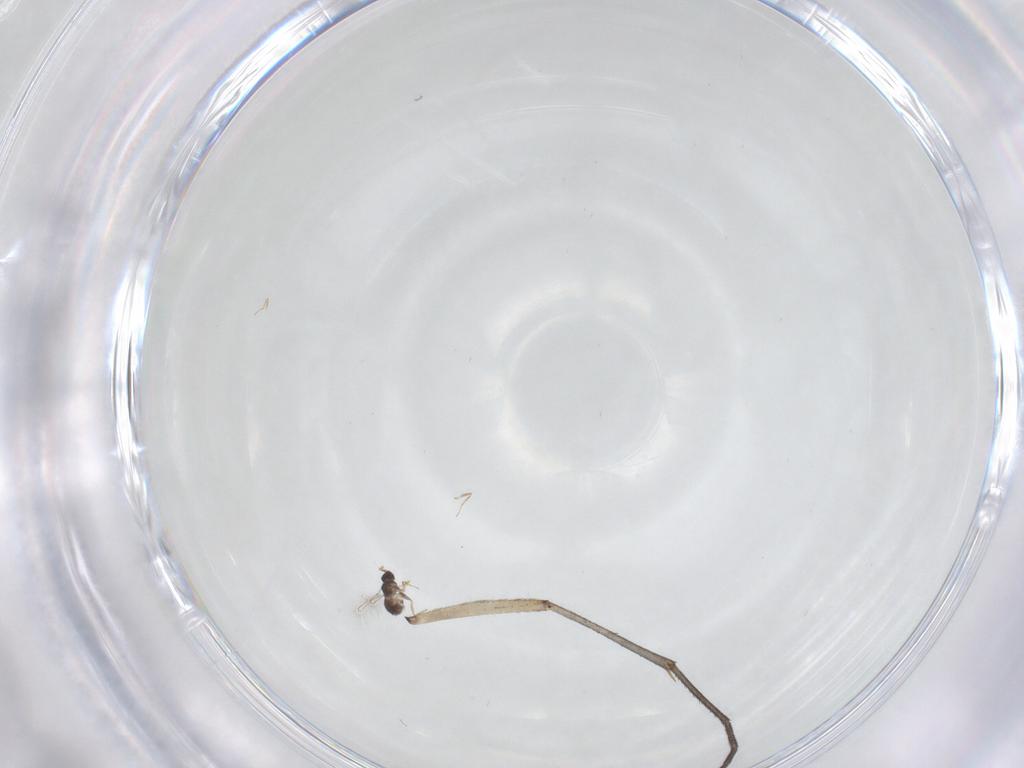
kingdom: Animalia
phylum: Arthropoda
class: Insecta
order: Diptera
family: Mycetophilidae
